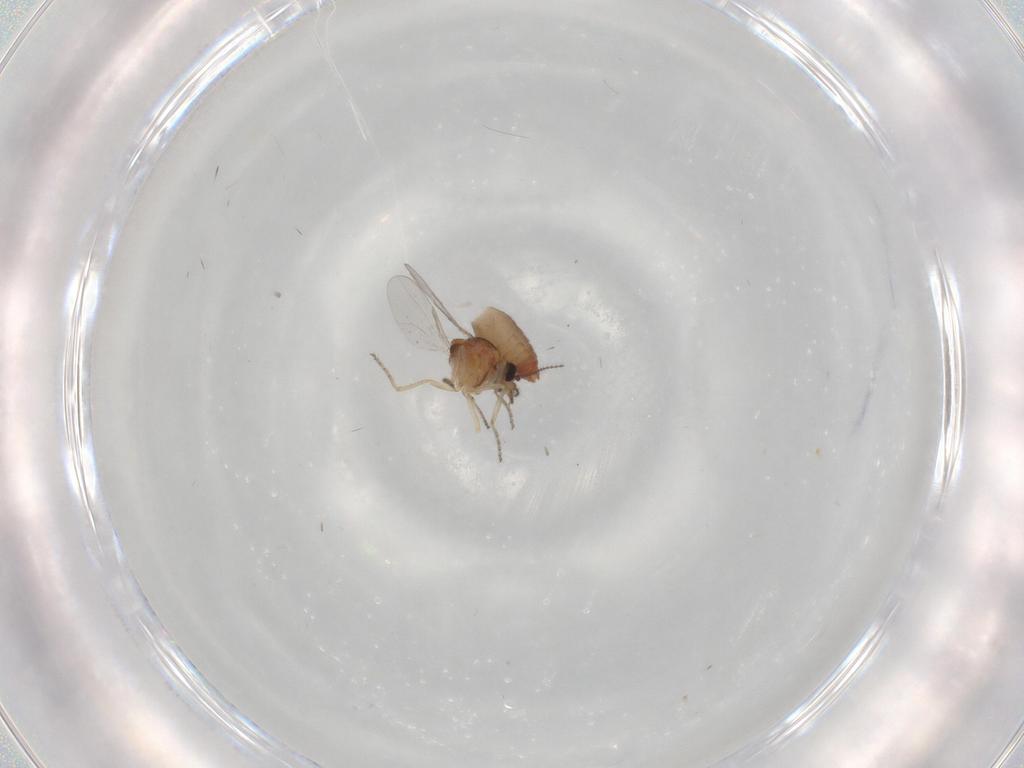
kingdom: Animalia
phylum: Arthropoda
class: Insecta
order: Diptera
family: Ceratopogonidae
